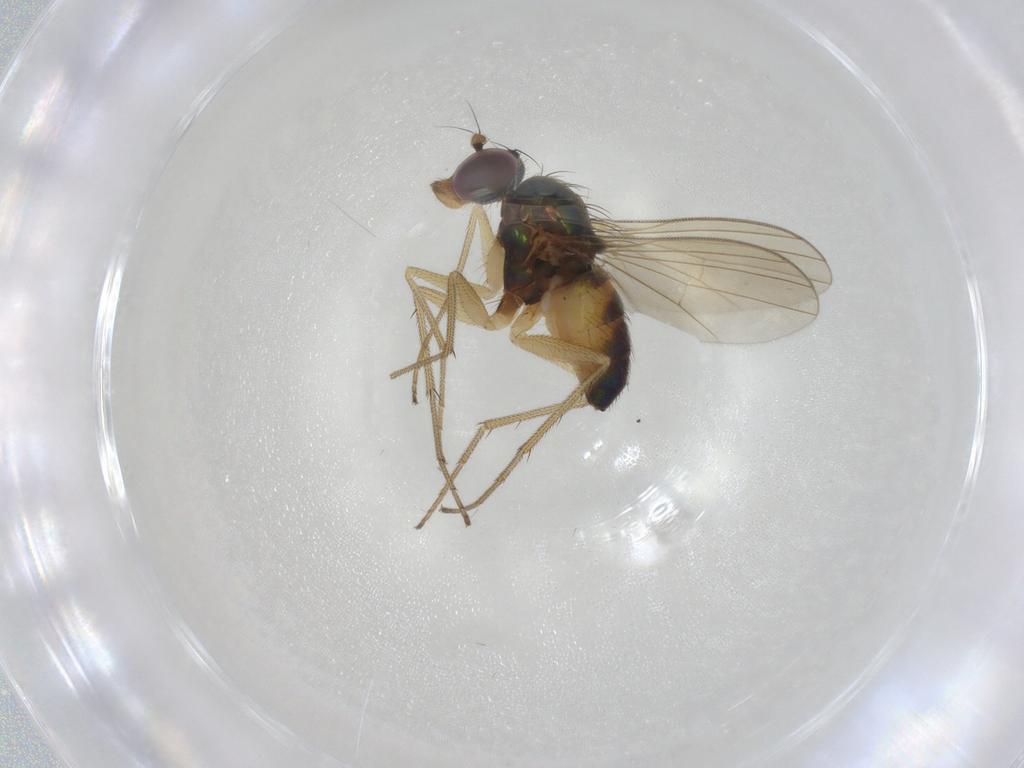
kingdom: Animalia
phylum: Arthropoda
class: Insecta
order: Diptera
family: Dolichopodidae
